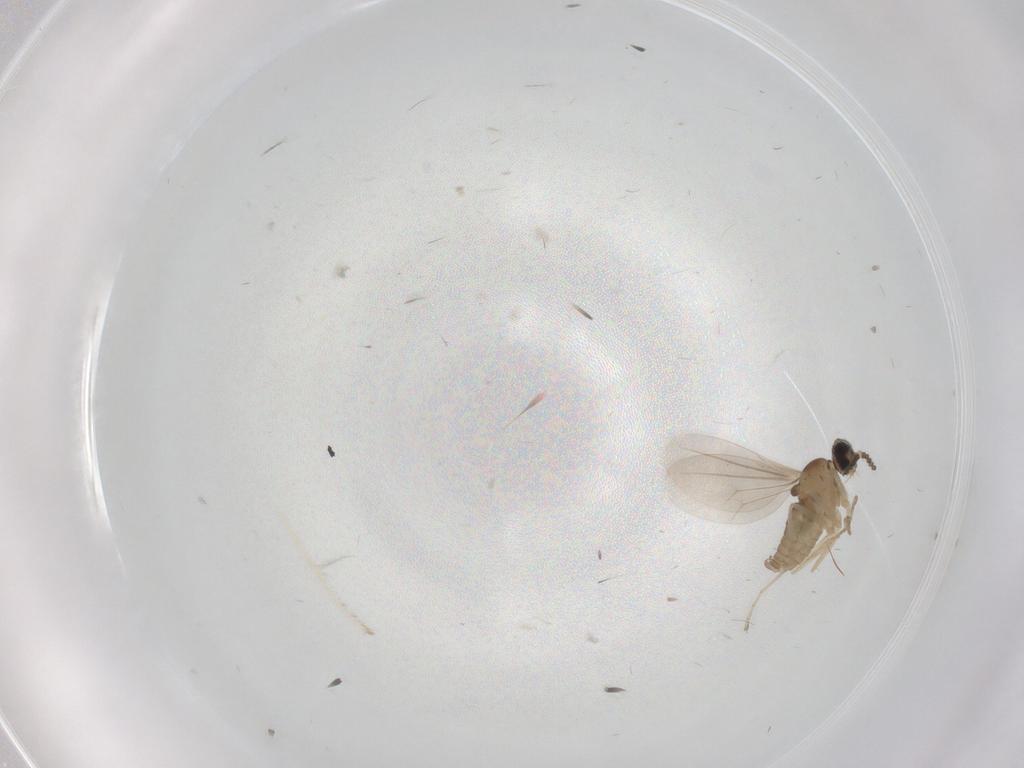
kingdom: Animalia
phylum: Arthropoda
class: Insecta
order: Diptera
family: Cecidomyiidae
